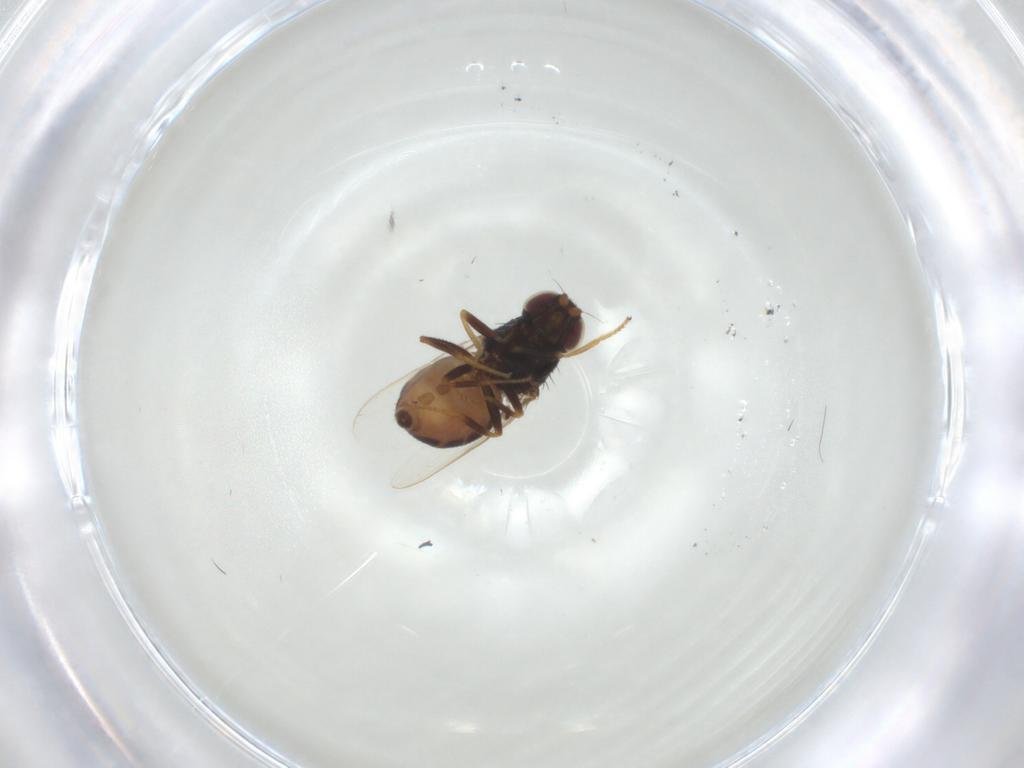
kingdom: Animalia
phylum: Arthropoda
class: Insecta
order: Diptera
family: Chloropidae
